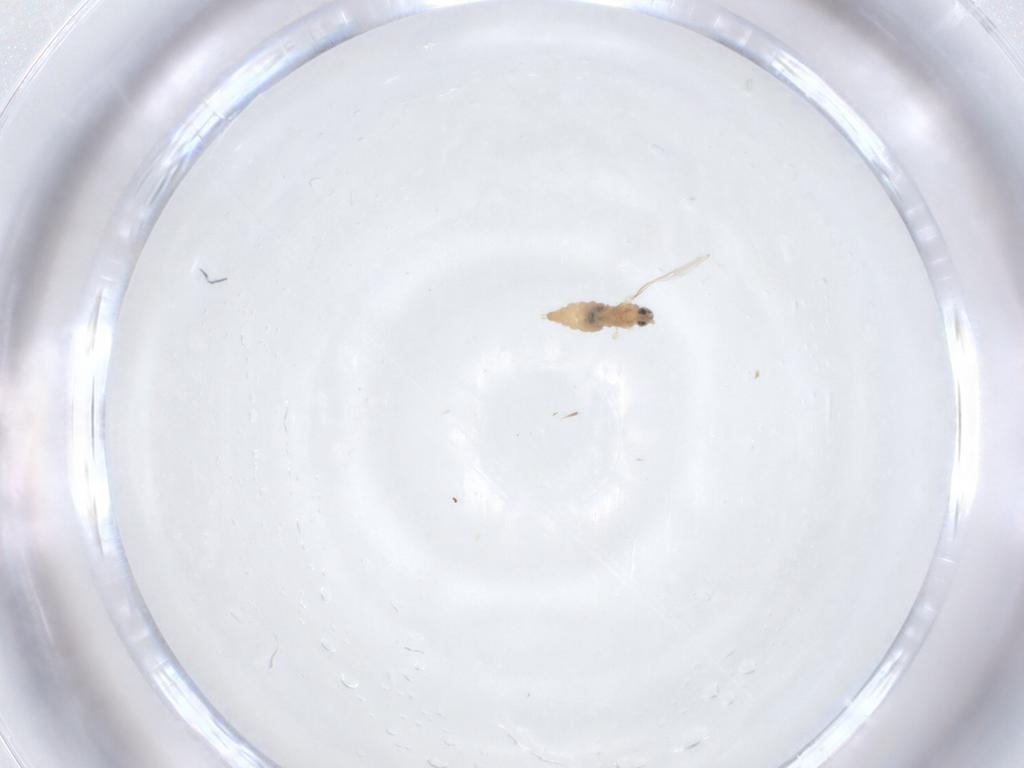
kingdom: Animalia
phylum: Arthropoda
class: Insecta
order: Diptera
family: Cecidomyiidae
